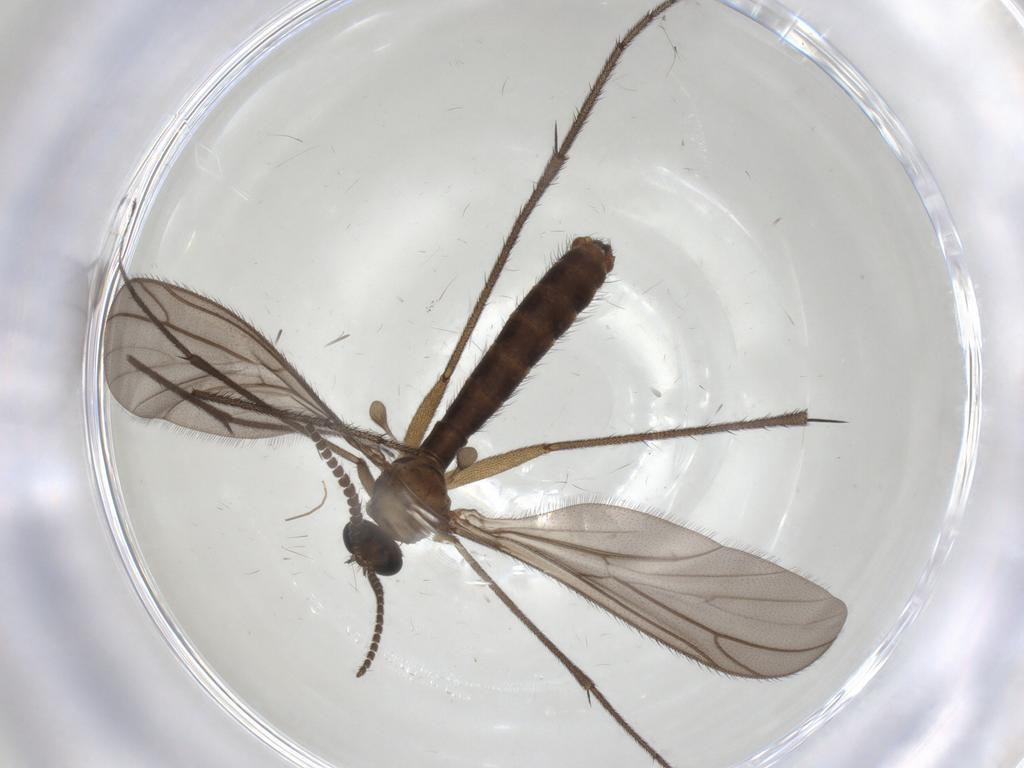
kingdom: Animalia
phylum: Arthropoda
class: Insecta
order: Diptera
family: Ditomyiidae
